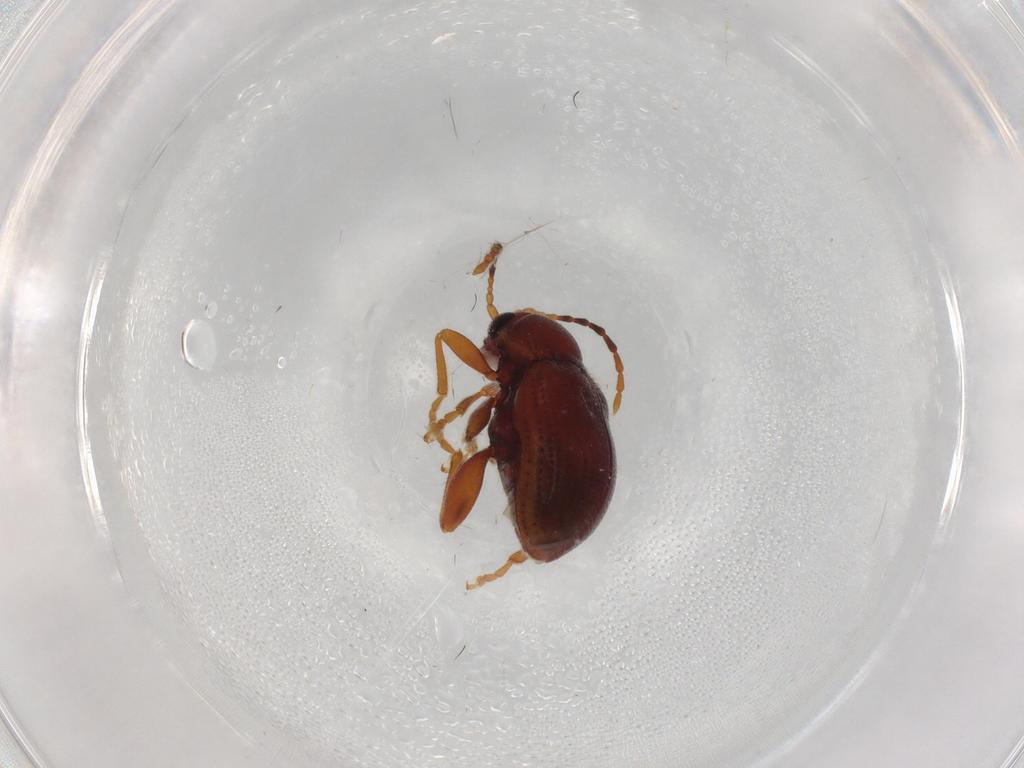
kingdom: Animalia
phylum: Arthropoda
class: Insecta
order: Coleoptera
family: Chrysomelidae
